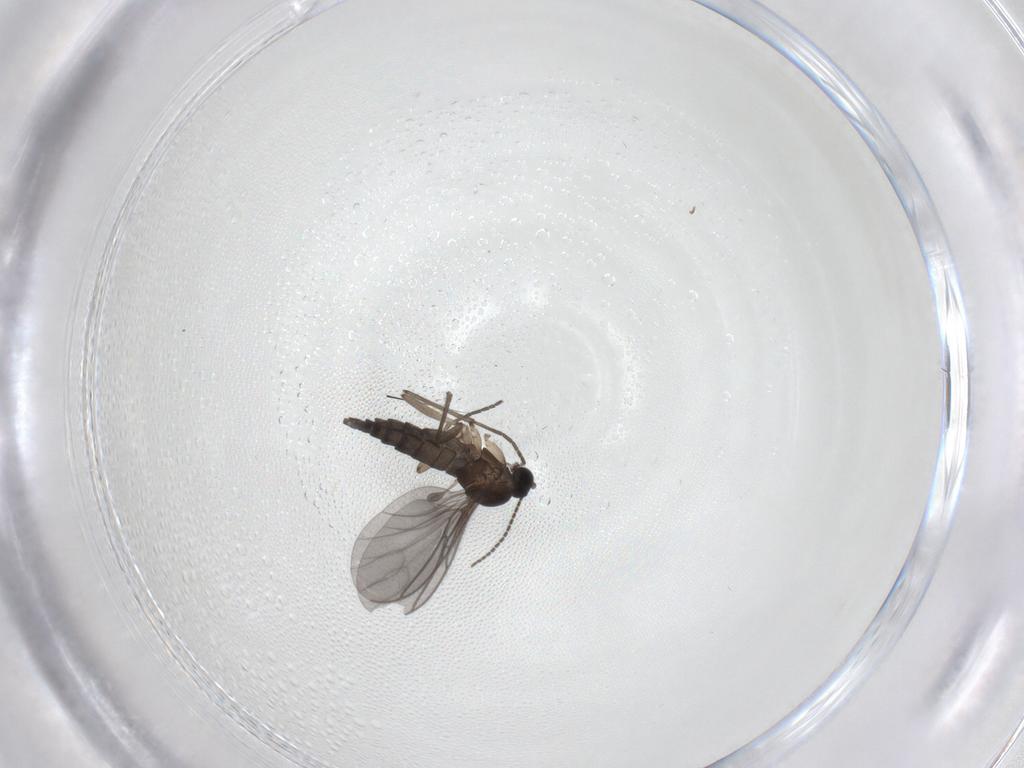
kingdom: Animalia
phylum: Arthropoda
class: Insecta
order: Diptera
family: Sciaridae
